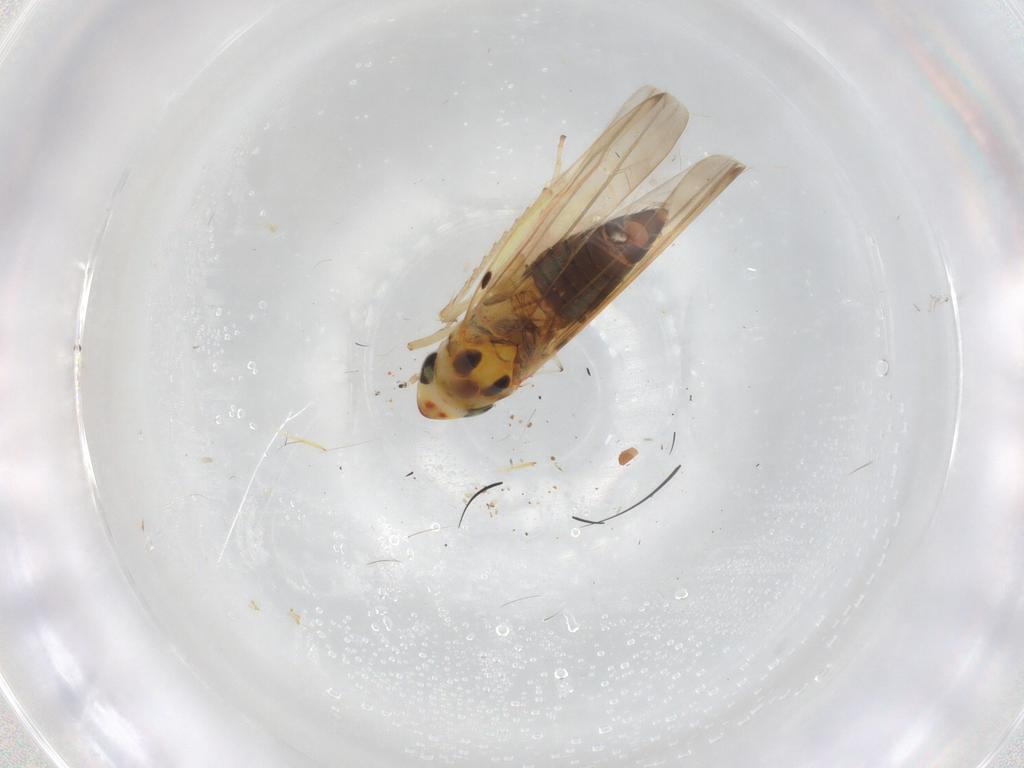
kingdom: Animalia
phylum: Arthropoda
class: Insecta
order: Hemiptera
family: Cicadellidae
